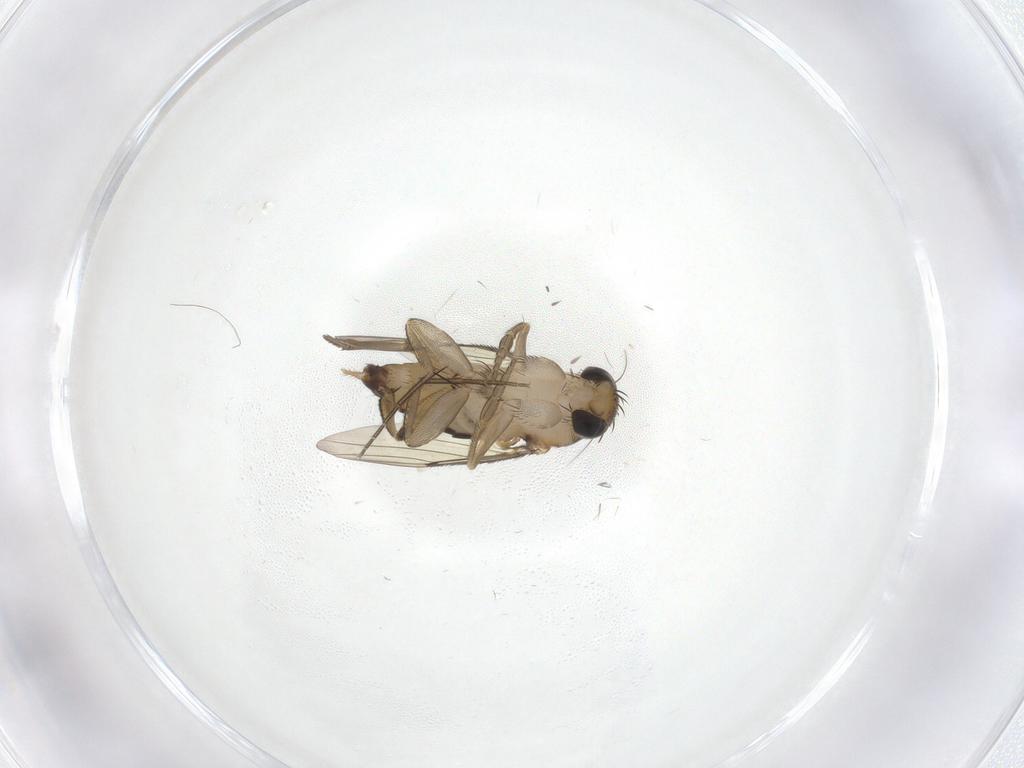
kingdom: Animalia
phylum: Arthropoda
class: Insecta
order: Diptera
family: Phoridae
